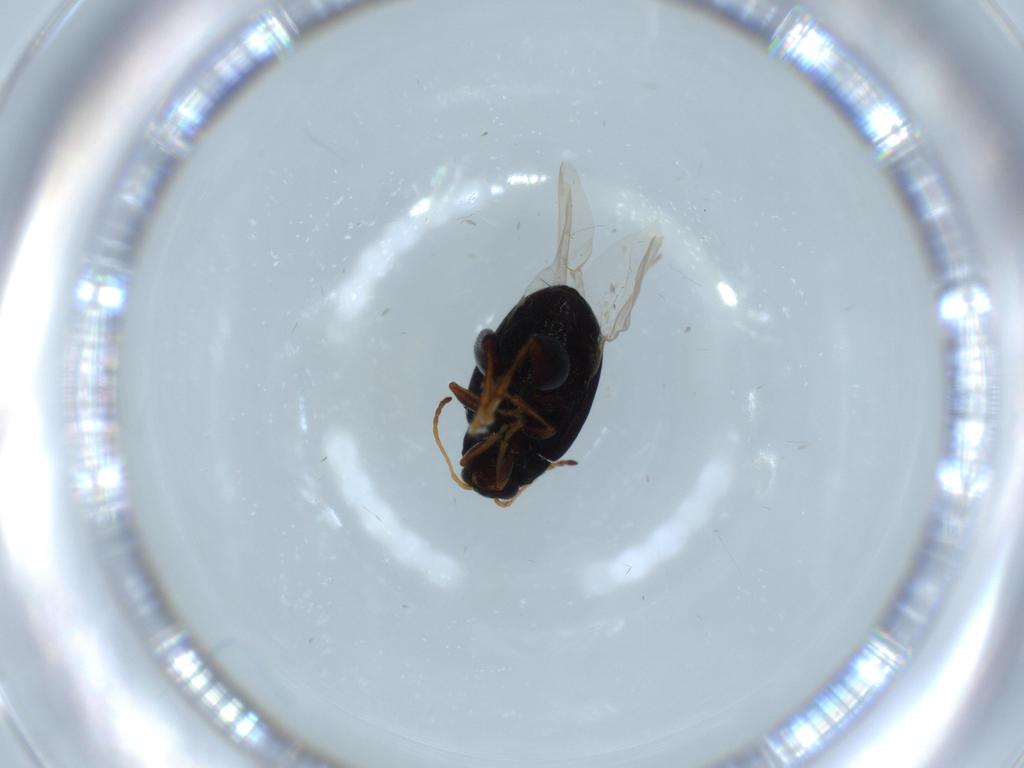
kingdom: Animalia
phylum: Arthropoda
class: Insecta
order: Coleoptera
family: Chrysomelidae
